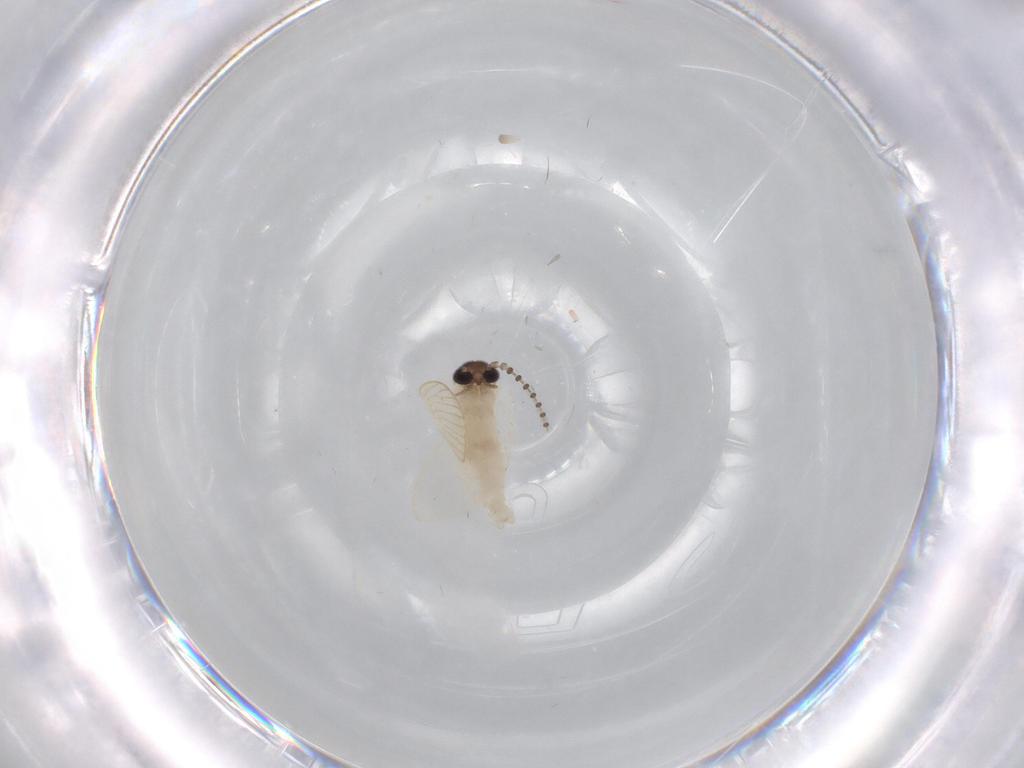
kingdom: Animalia
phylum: Arthropoda
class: Insecta
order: Diptera
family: Psychodidae
